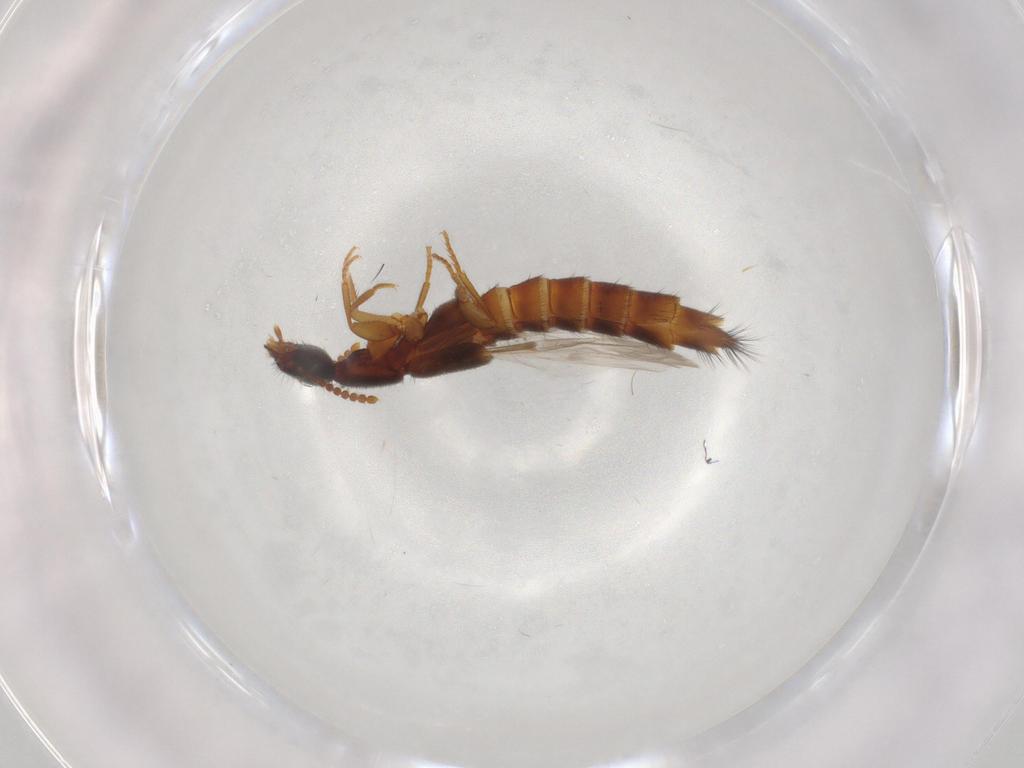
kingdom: Animalia
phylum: Arthropoda
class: Insecta
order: Coleoptera
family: Staphylinidae
